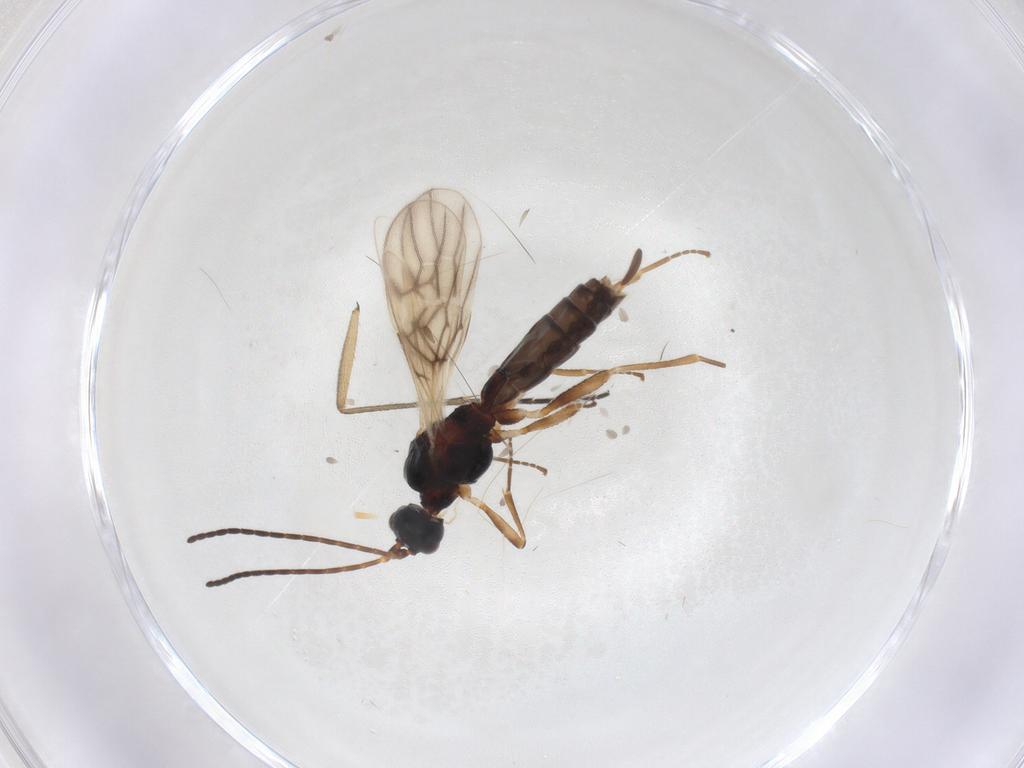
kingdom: Animalia
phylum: Arthropoda
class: Insecta
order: Hymenoptera
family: Braconidae
